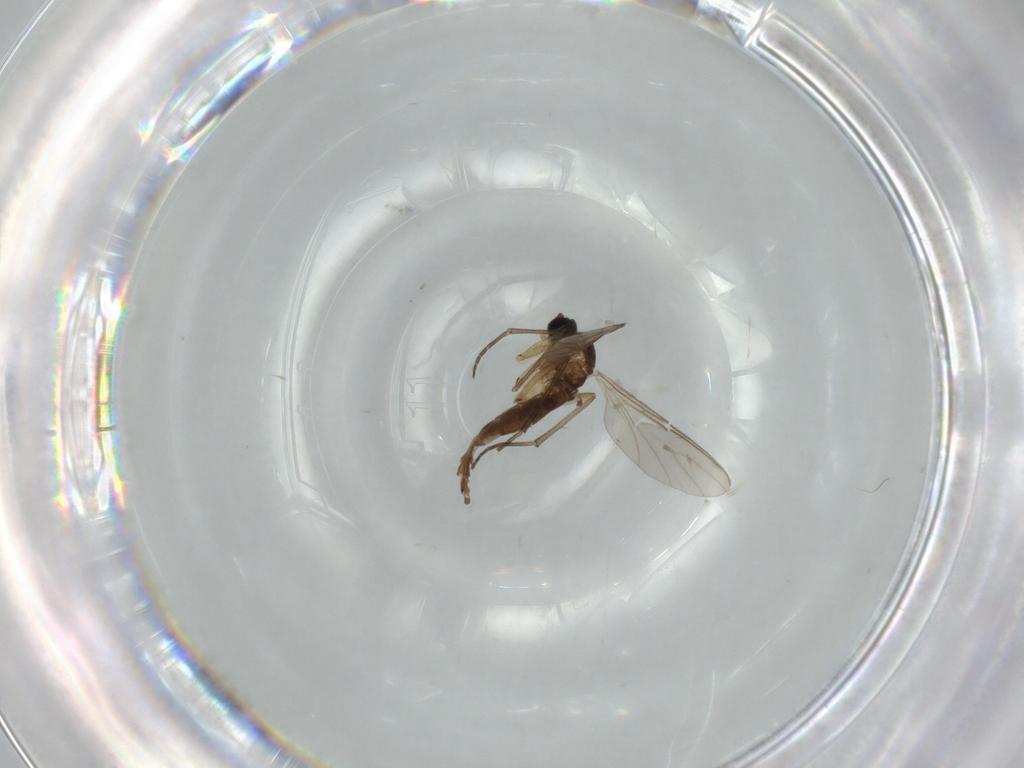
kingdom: Animalia
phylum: Arthropoda
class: Insecta
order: Diptera
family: Sciaridae
